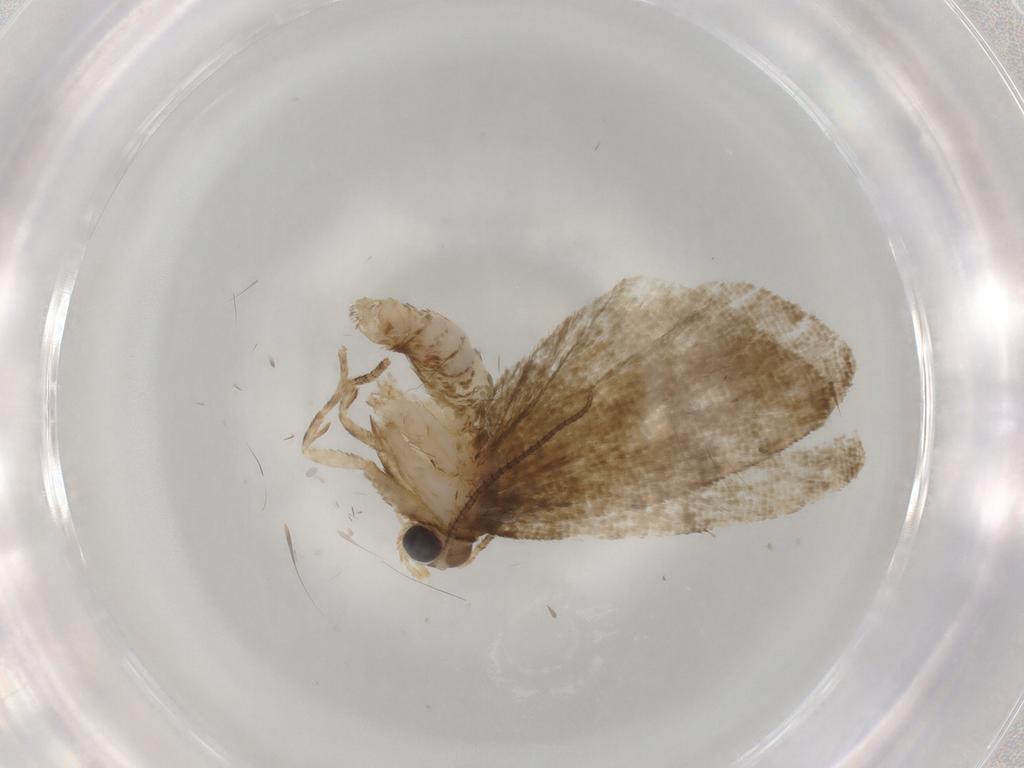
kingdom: Animalia
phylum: Arthropoda
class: Insecta
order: Lepidoptera
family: Tortricidae
